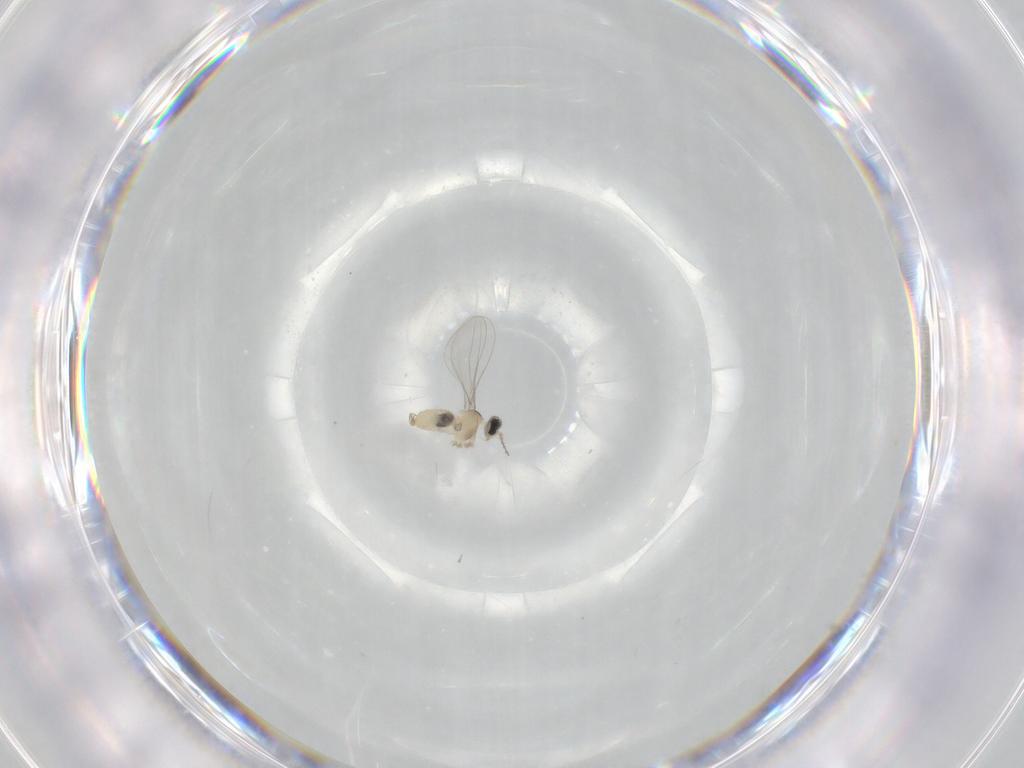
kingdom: Animalia
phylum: Arthropoda
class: Insecta
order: Diptera
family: Cecidomyiidae
